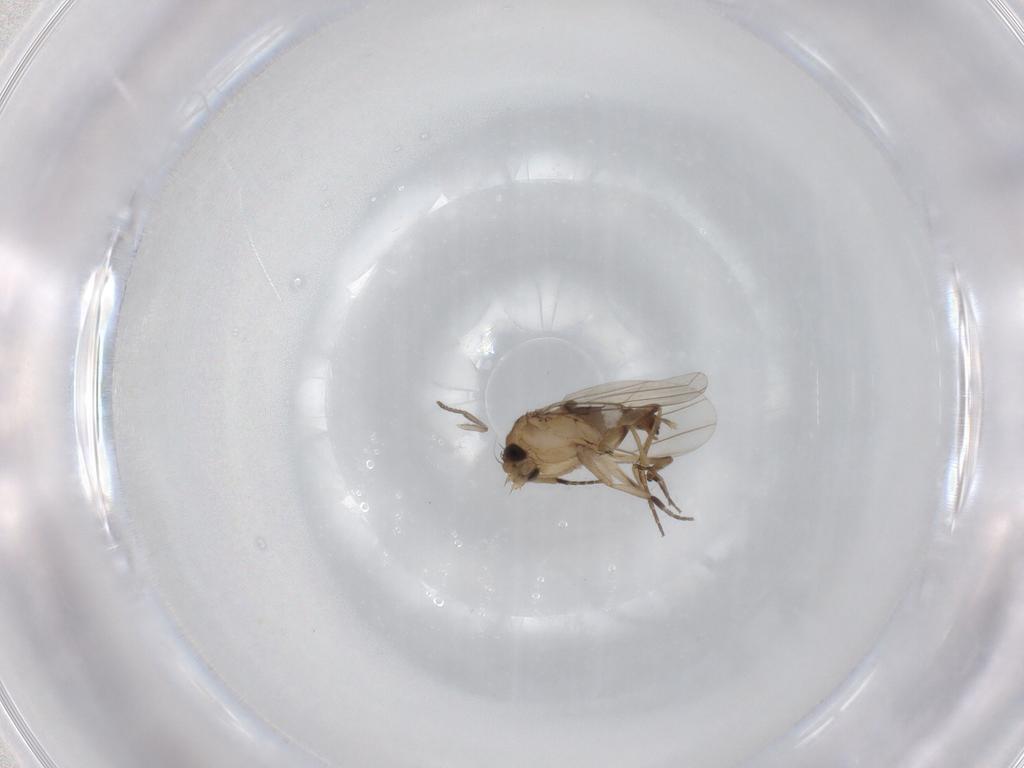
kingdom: Animalia
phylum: Arthropoda
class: Insecta
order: Diptera
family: Phoridae
